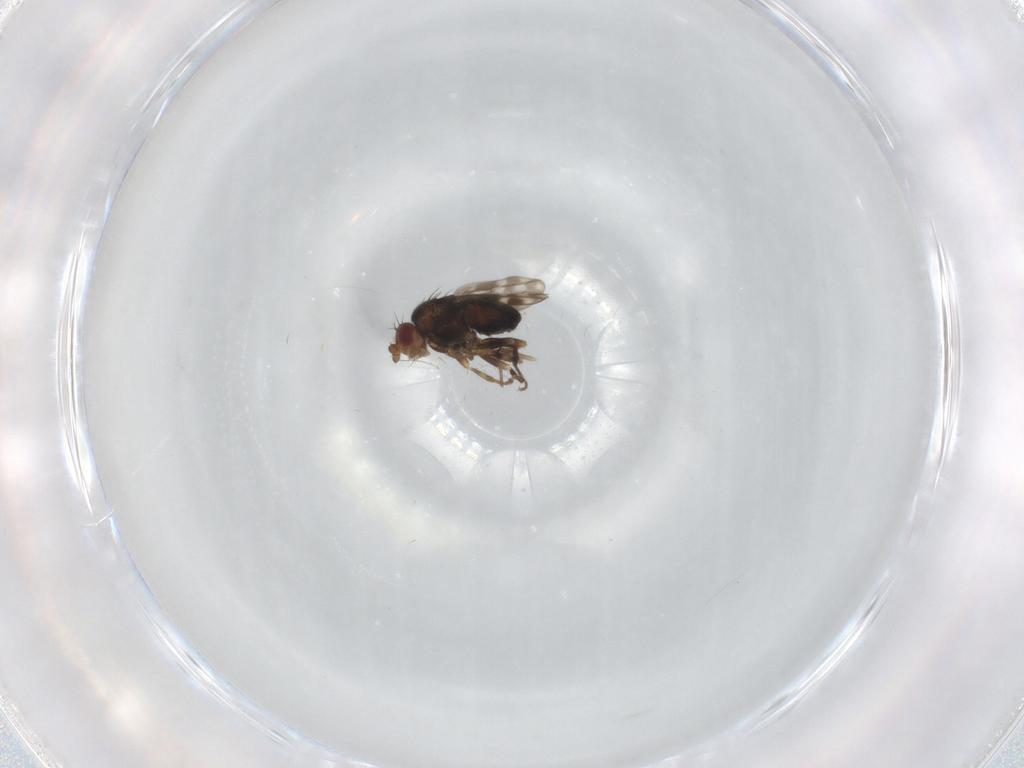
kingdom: Animalia
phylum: Arthropoda
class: Insecta
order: Diptera
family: Sphaeroceridae
